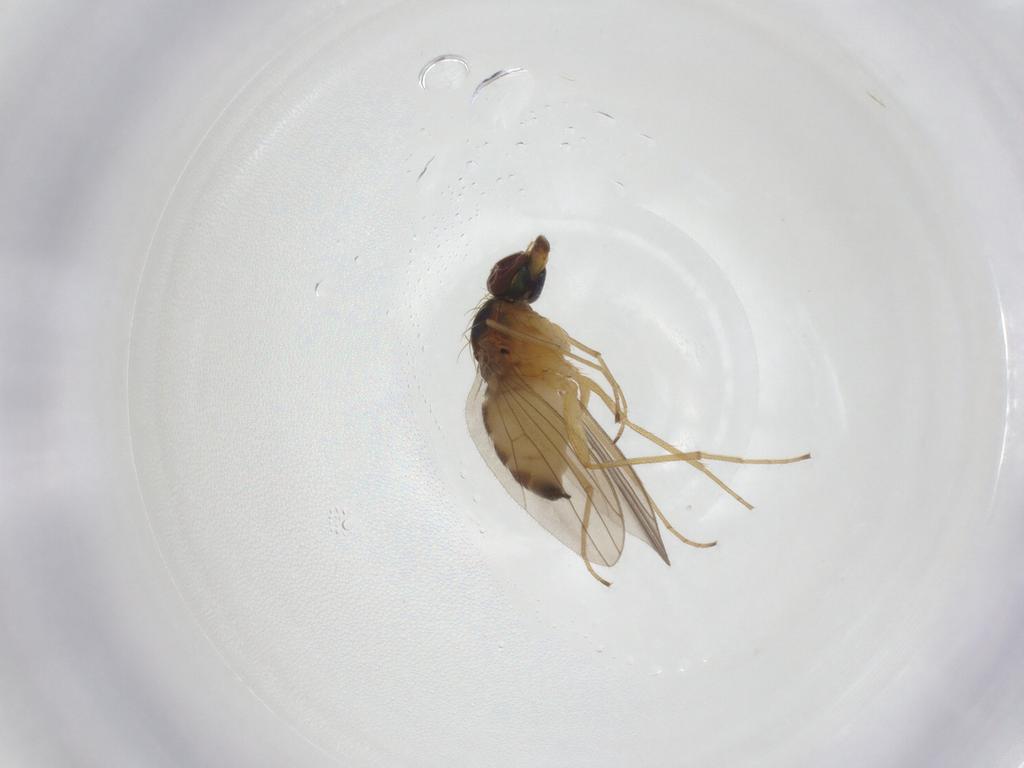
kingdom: Animalia
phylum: Arthropoda
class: Insecta
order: Diptera
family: Dolichopodidae
